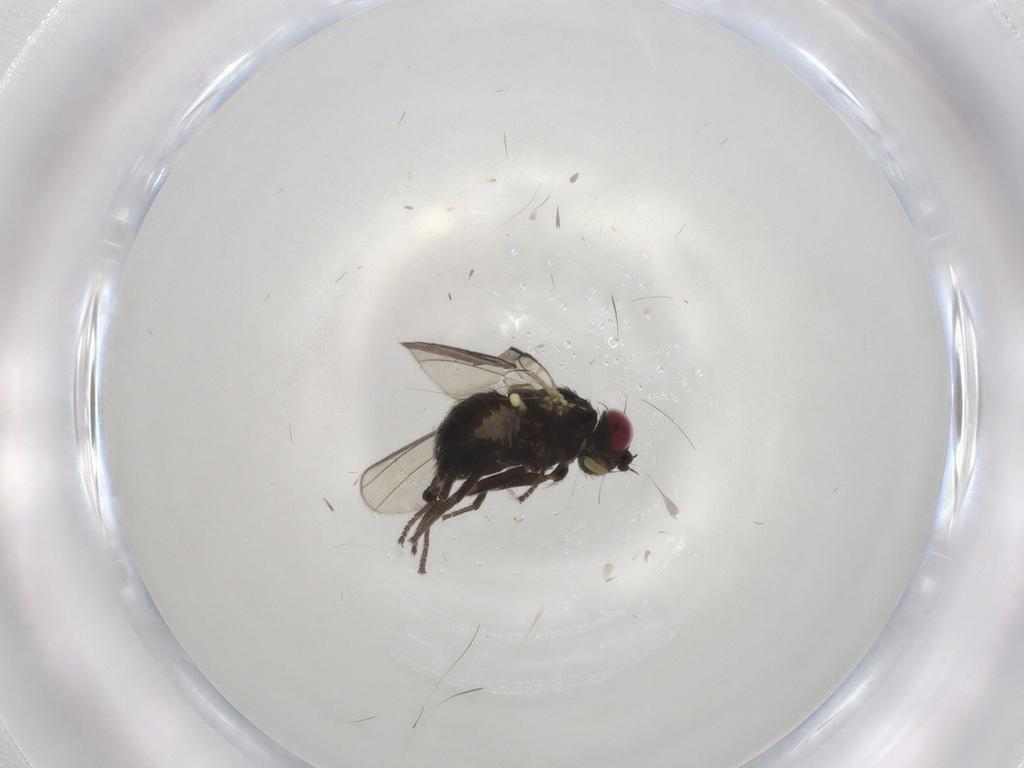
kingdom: Animalia
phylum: Arthropoda
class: Insecta
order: Diptera
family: Agromyzidae
